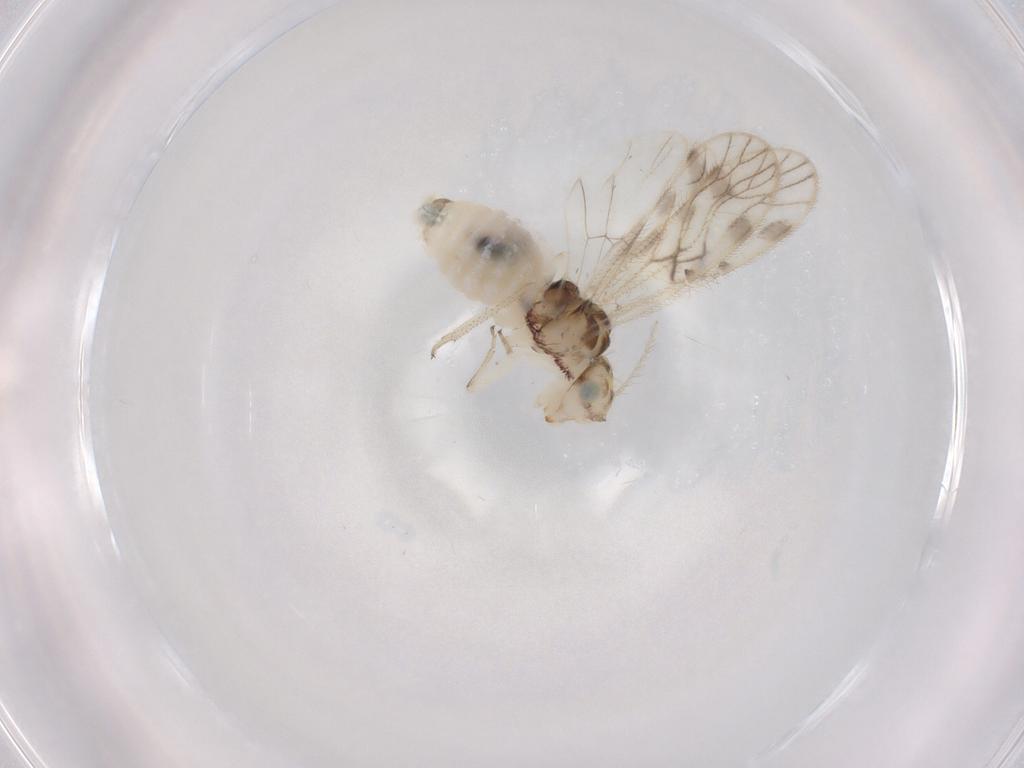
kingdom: Animalia
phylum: Arthropoda
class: Insecta
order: Psocodea
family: Caeciliusidae
